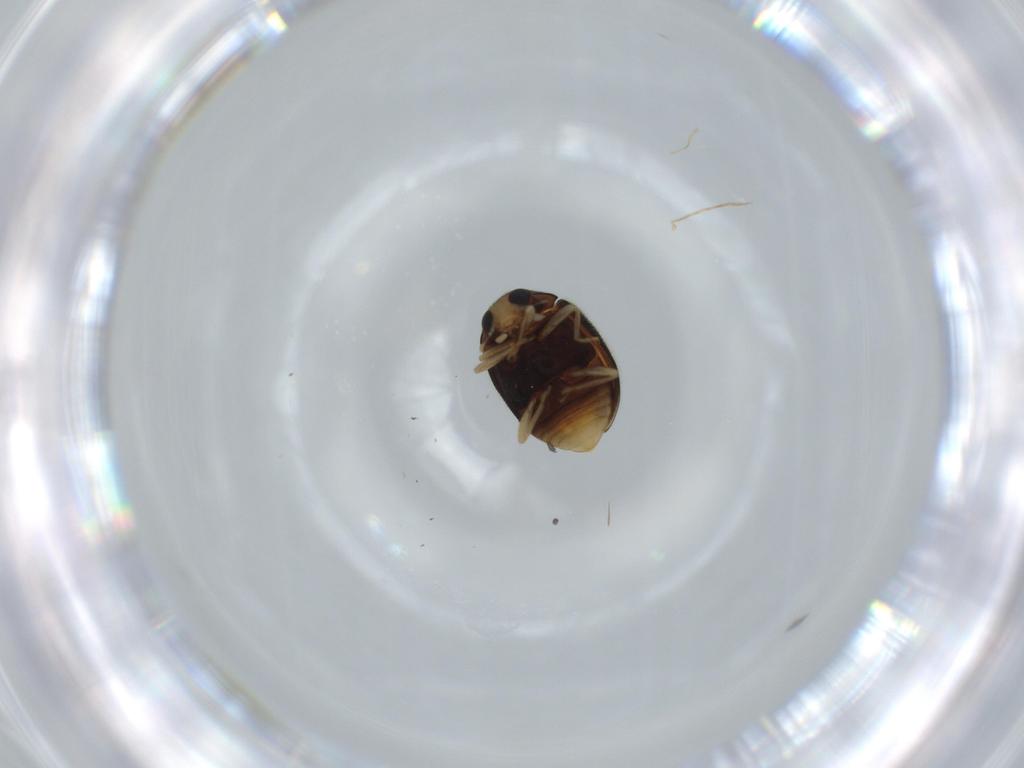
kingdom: Animalia
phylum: Arthropoda
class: Insecta
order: Coleoptera
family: Coccinellidae
